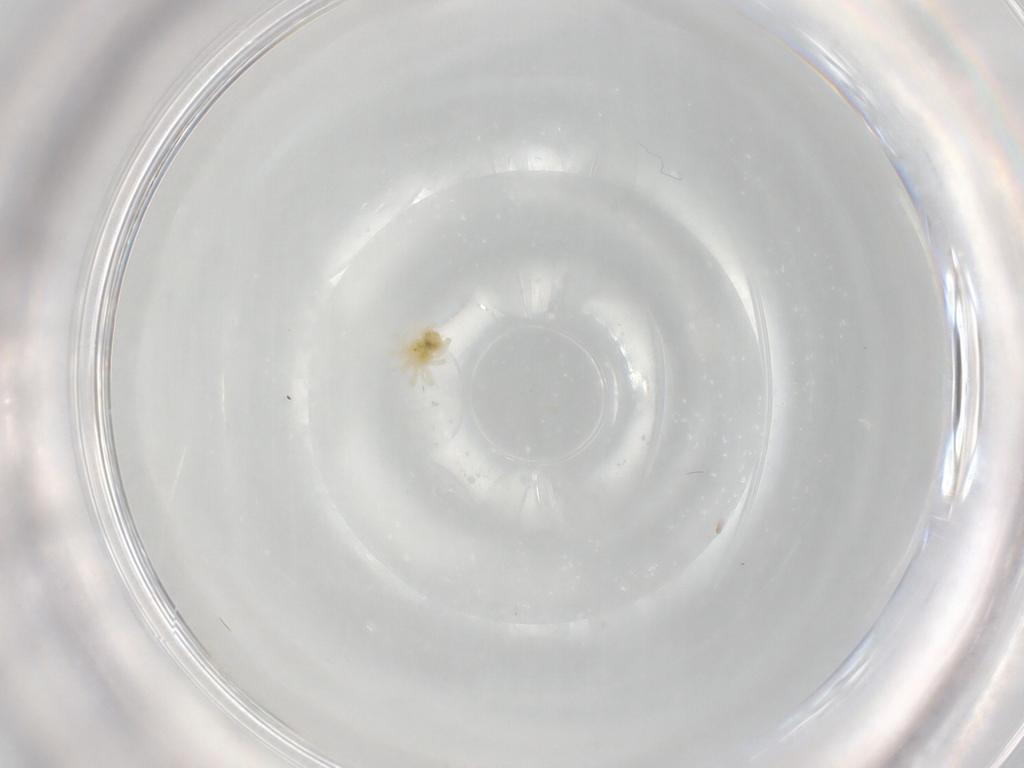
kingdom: Animalia
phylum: Arthropoda
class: Arachnida
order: Trombidiformes
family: Anystidae
